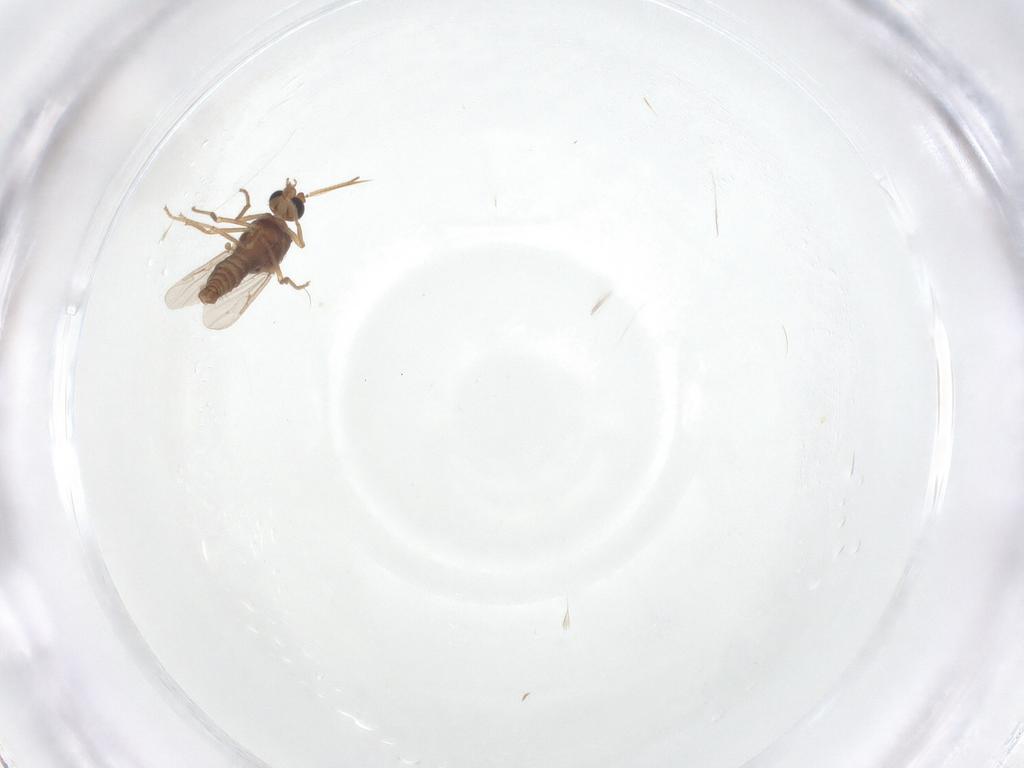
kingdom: Animalia
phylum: Arthropoda
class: Insecta
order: Diptera
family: Ceratopogonidae
